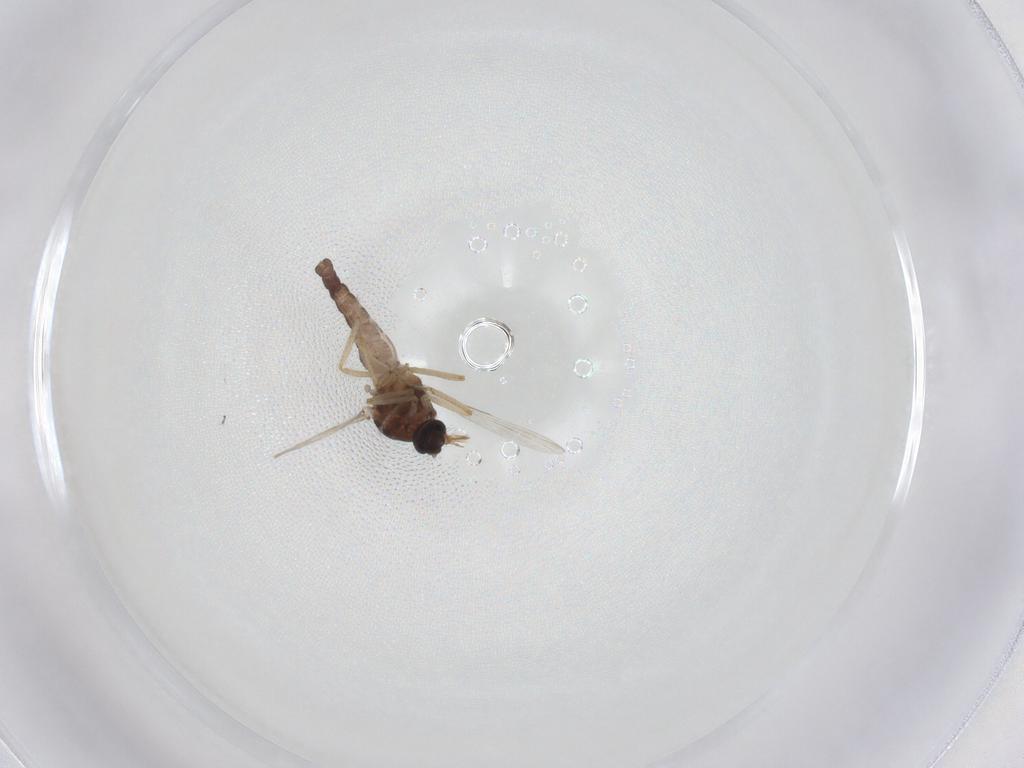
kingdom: Animalia
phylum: Arthropoda
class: Insecta
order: Diptera
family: Ceratopogonidae
